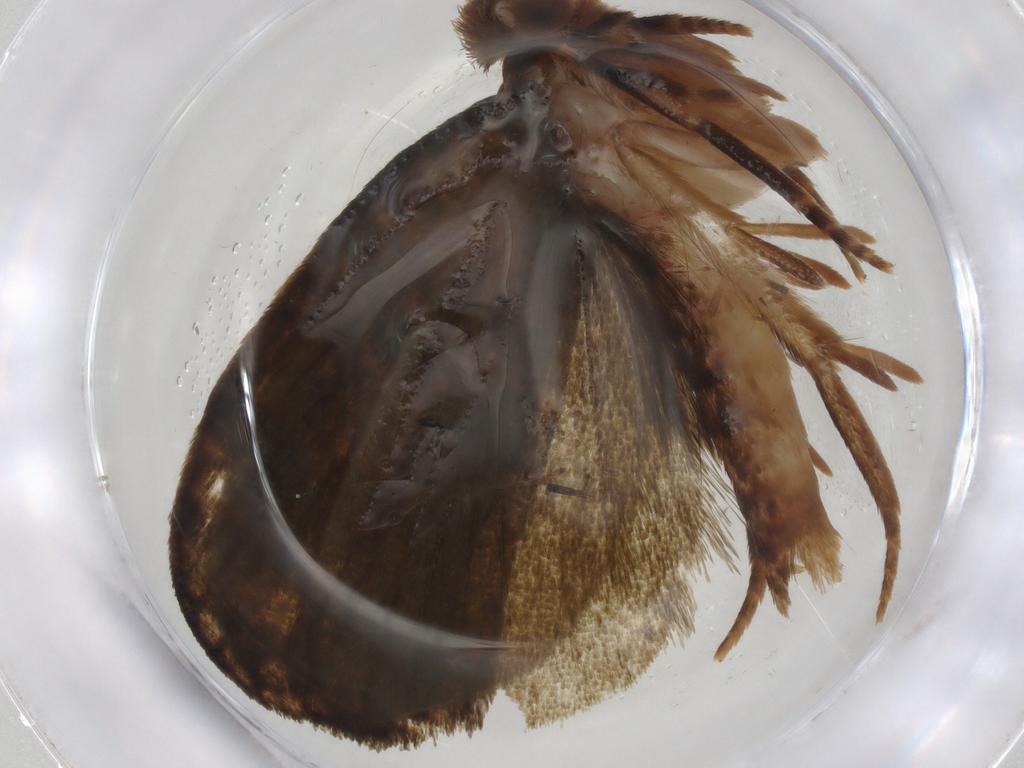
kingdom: Animalia
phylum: Arthropoda
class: Insecta
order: Lepidoptera
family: Geometridae
